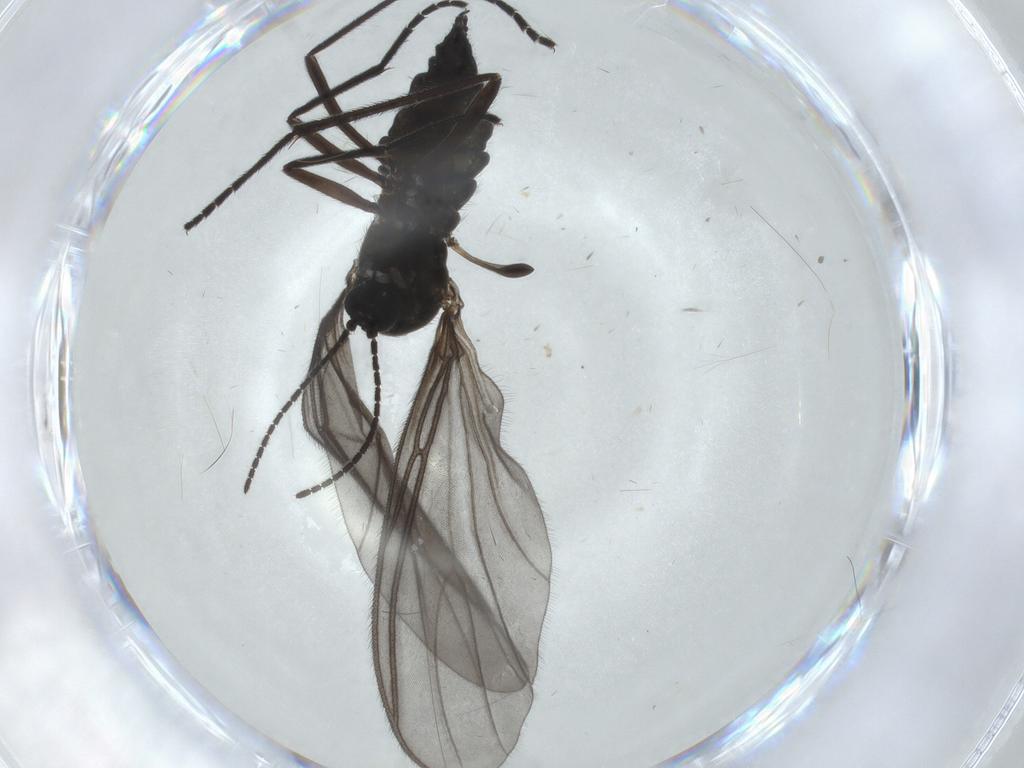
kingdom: Animalia
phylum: Arthropoda
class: Insecta
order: Diptera
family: Sciaridae
